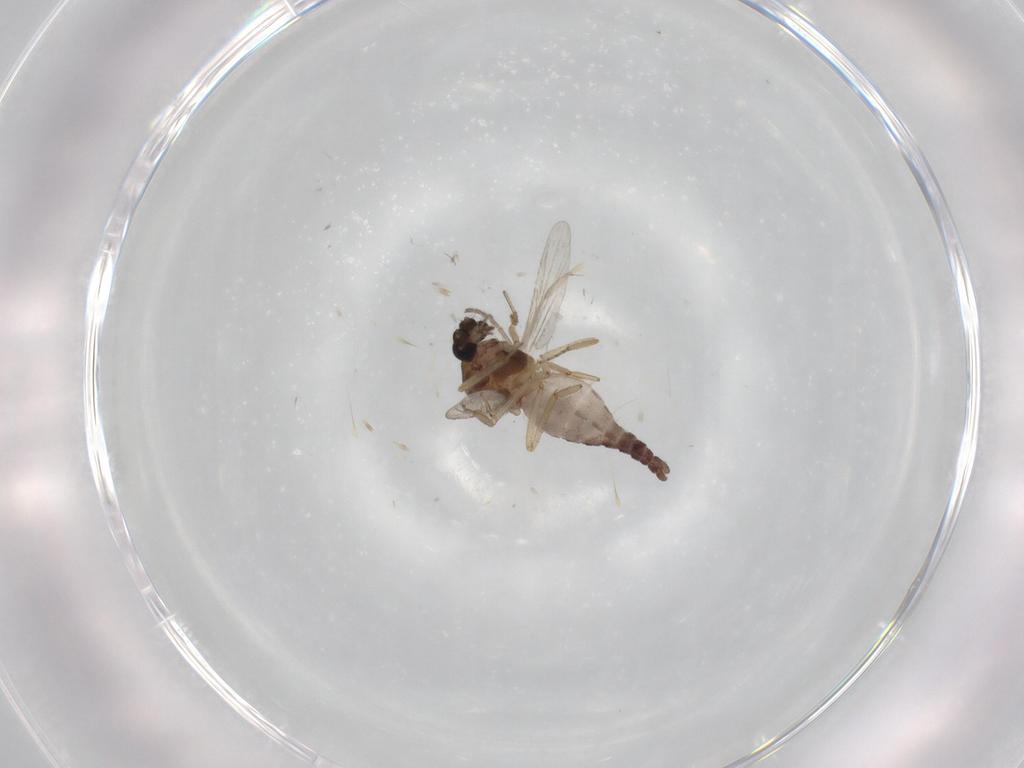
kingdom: Animalia
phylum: Arthropoda
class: Insecta
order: Diptera
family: Ceratopogonidae
